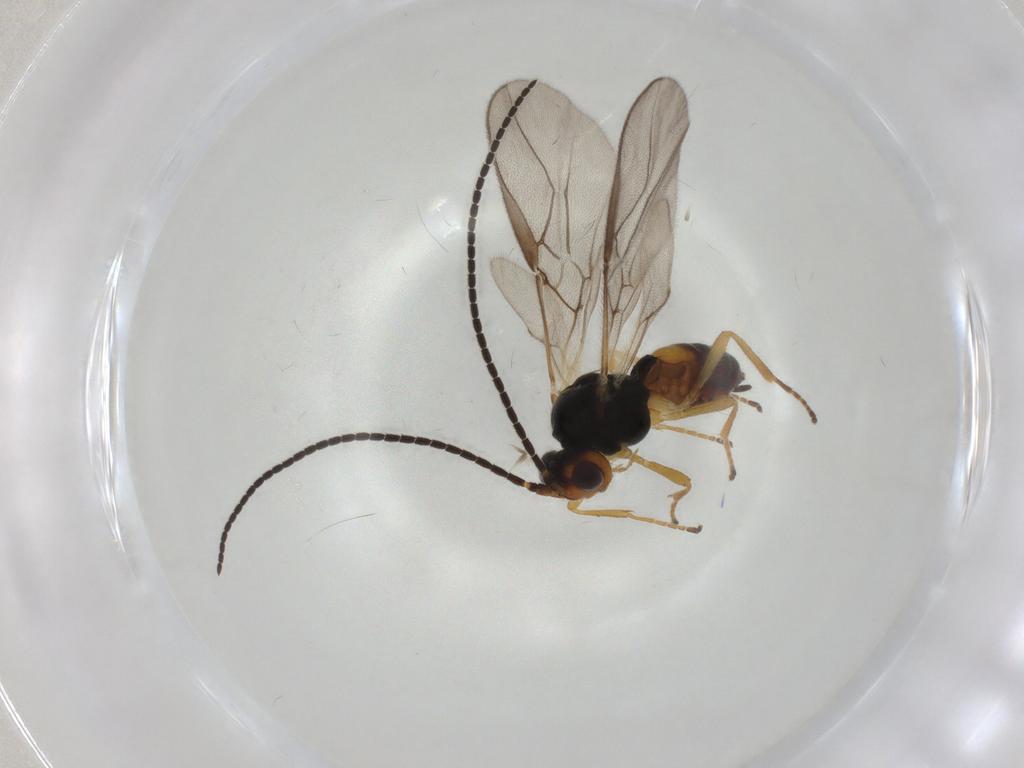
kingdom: Animalia
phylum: Arthropoda
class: Insecta
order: Hymenoptera
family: Braconidae
